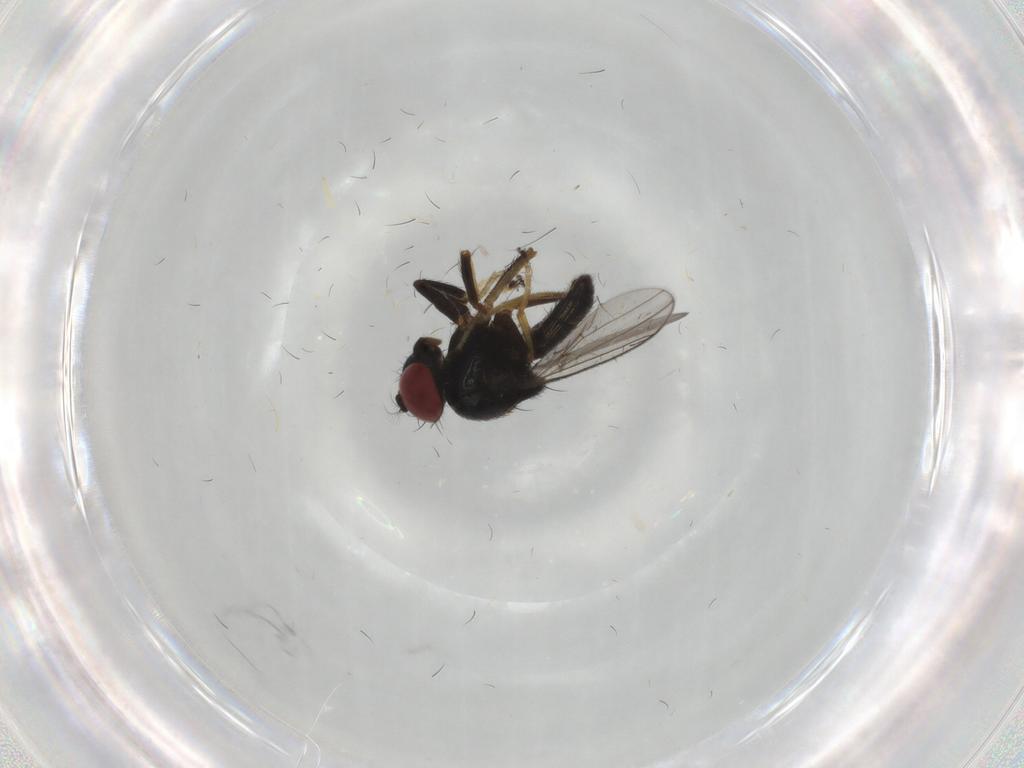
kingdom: Animalia
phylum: Arthropoda
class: Insecta
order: Diptera
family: Ephydridae
